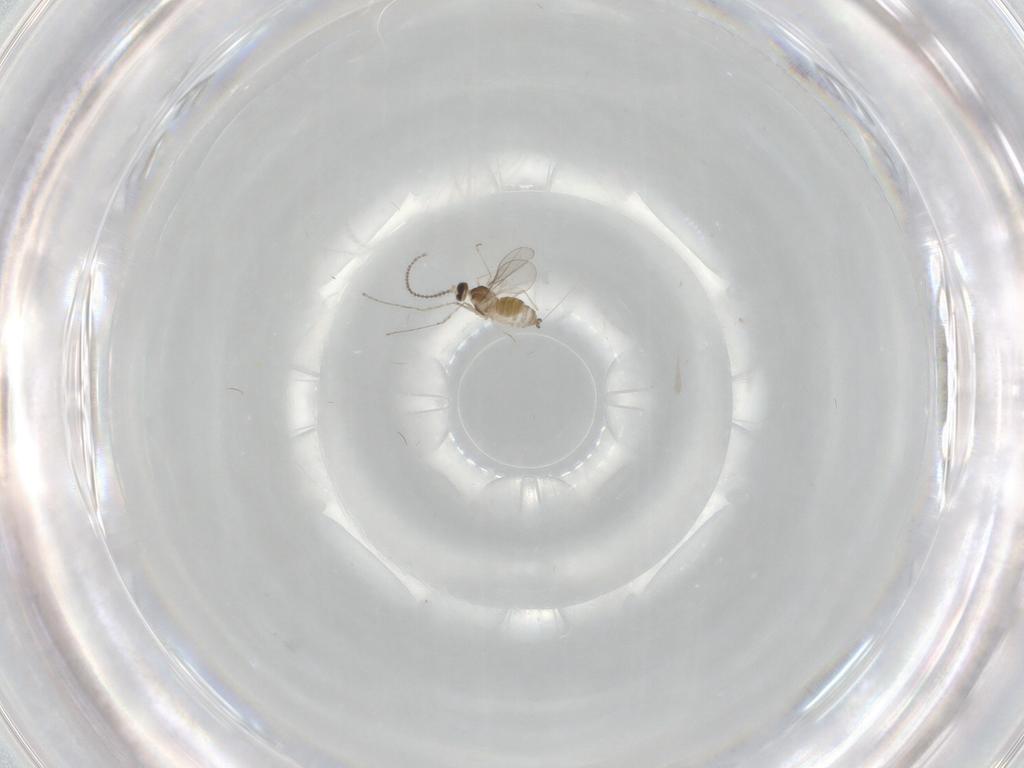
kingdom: Animalia
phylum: Arthropoda
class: Insecta
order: Diptera
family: Cecidomyiidae
